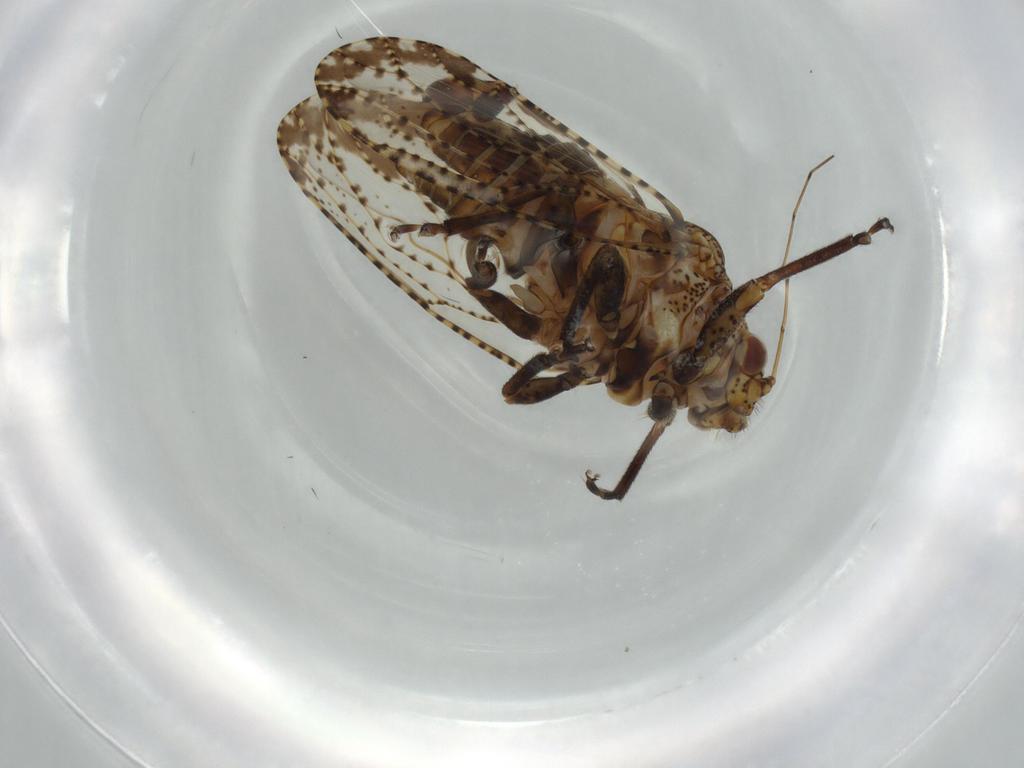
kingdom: Animalia
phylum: Arthropoda
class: Insecta
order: Hemiptera
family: Psyllidae
